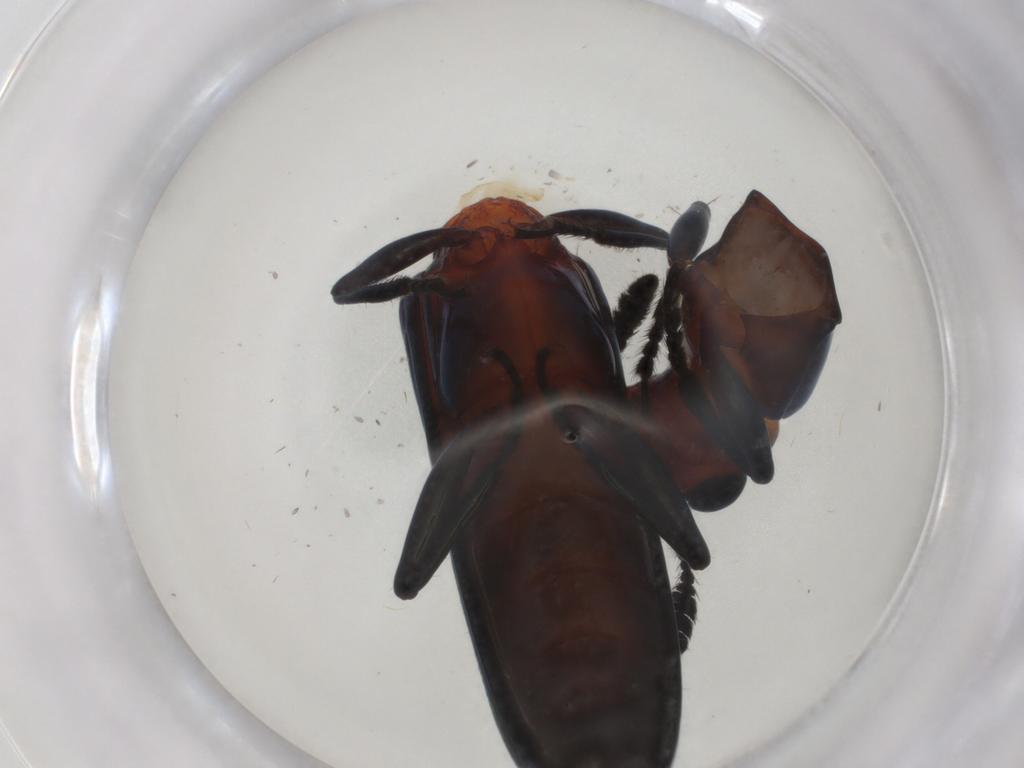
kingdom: Animalia
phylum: Arthropoda
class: Insecta
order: Coleoptera
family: Erotylidae
